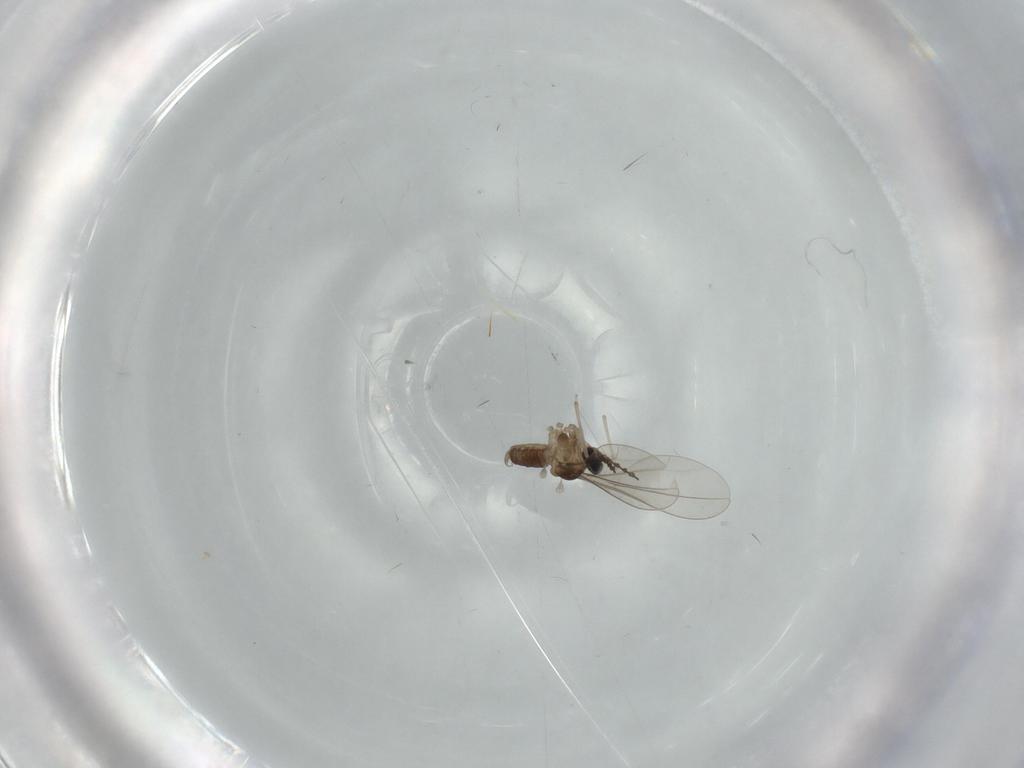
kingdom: Animalia
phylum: Arthropoda
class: Insecta
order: Diptera
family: Cecidomyiidae
